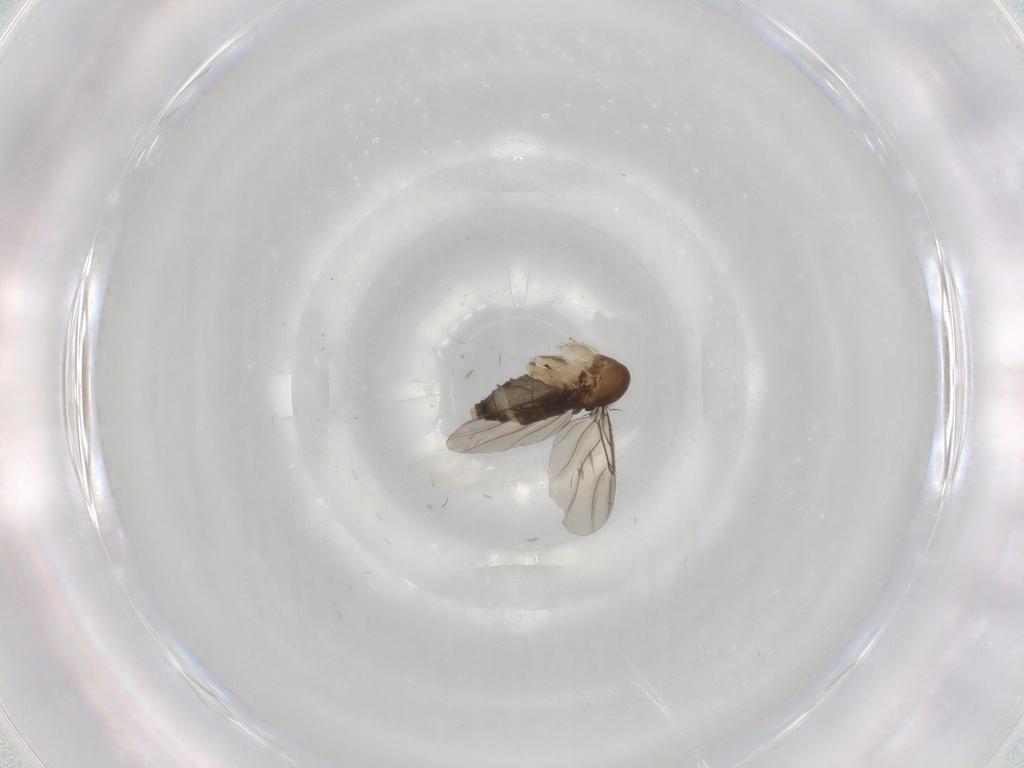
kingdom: Animalia
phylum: Arthropoda
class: Insecta
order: Diptera
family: Phoridae
